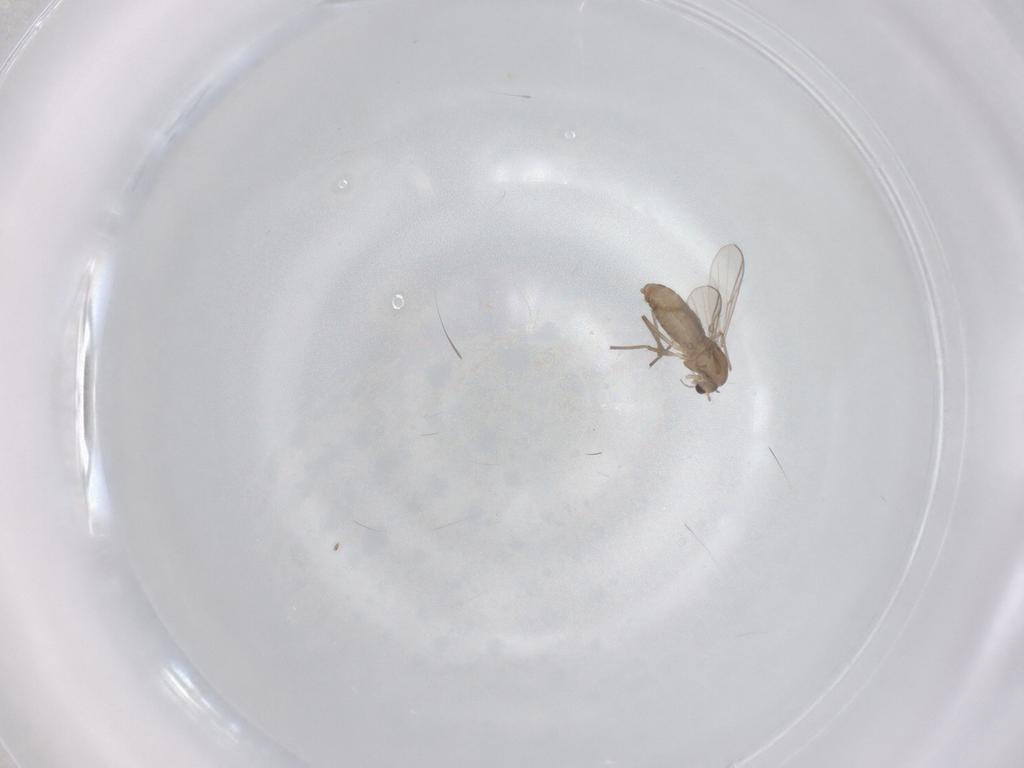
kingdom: Animalia
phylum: Arthropoda
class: Insecta
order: Diptera
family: Chironomidae
